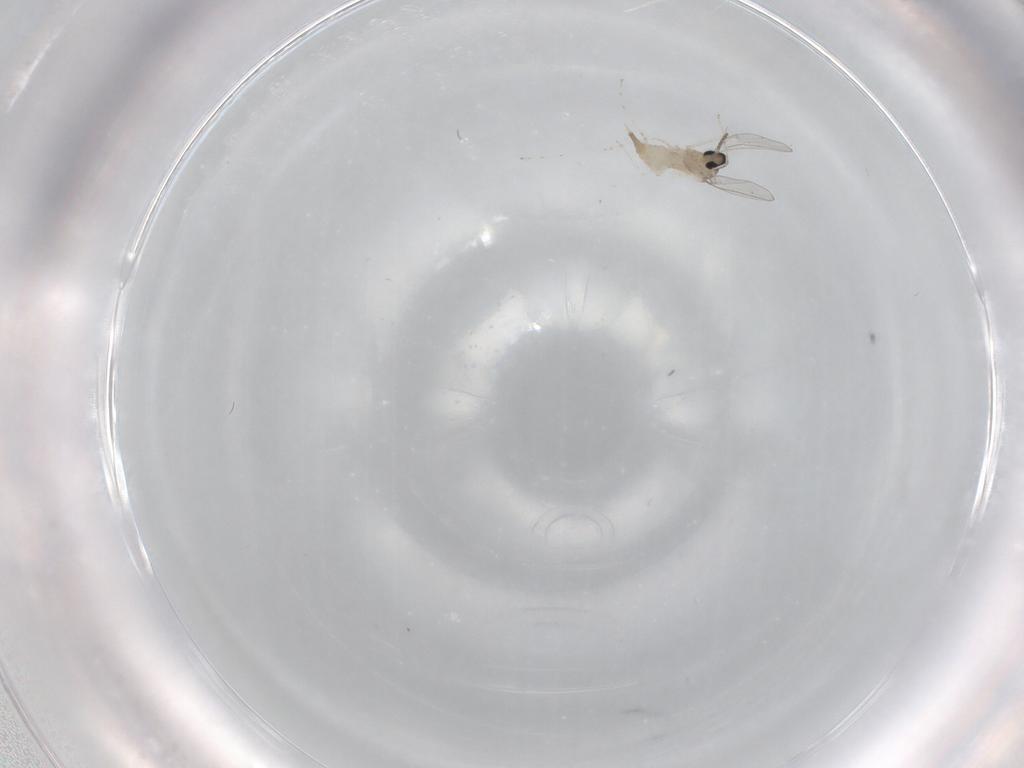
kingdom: Animalia
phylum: Arthropoda
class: Insecta
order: Diptera
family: Cecidomyiidae
